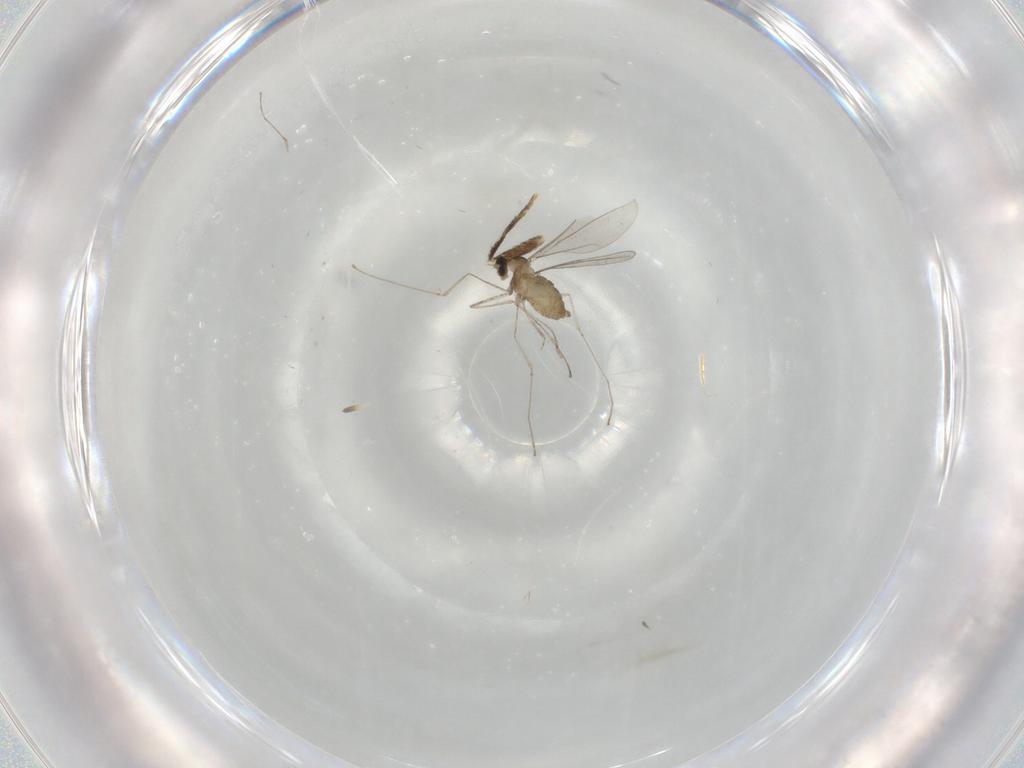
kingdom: Animalia
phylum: Arthropoda
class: Insecta
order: Diptera
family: Cecidomyiidae
